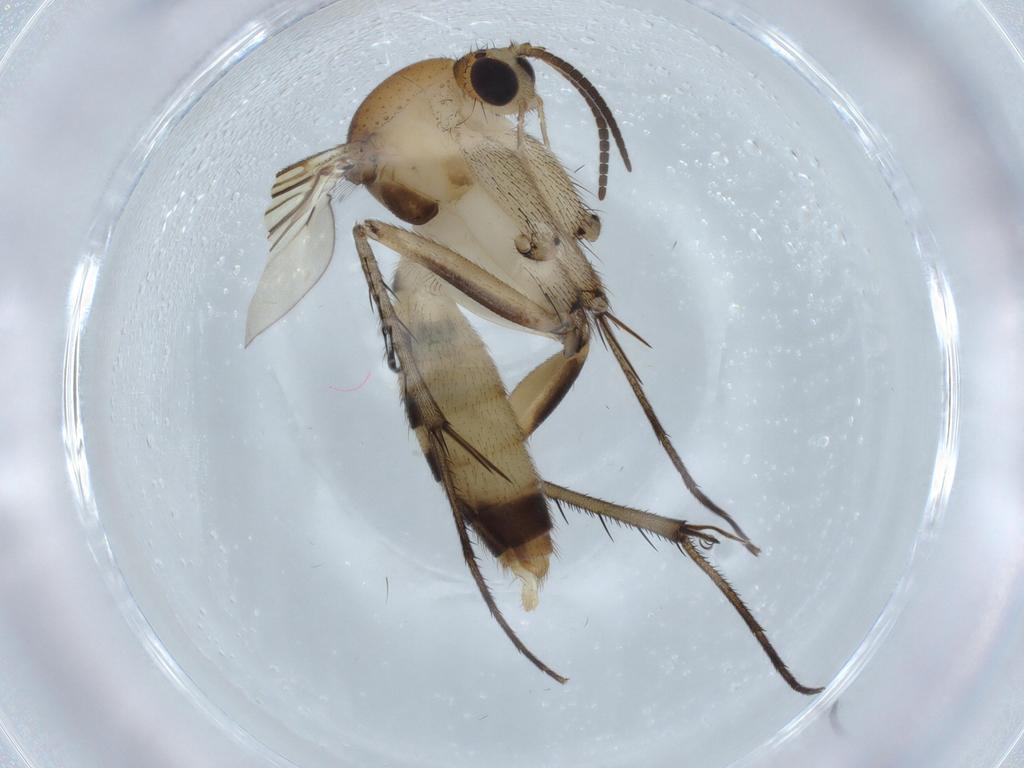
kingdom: Animalia
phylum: Arthropoda
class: Insecta
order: Diptera
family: Mycetophilidae
